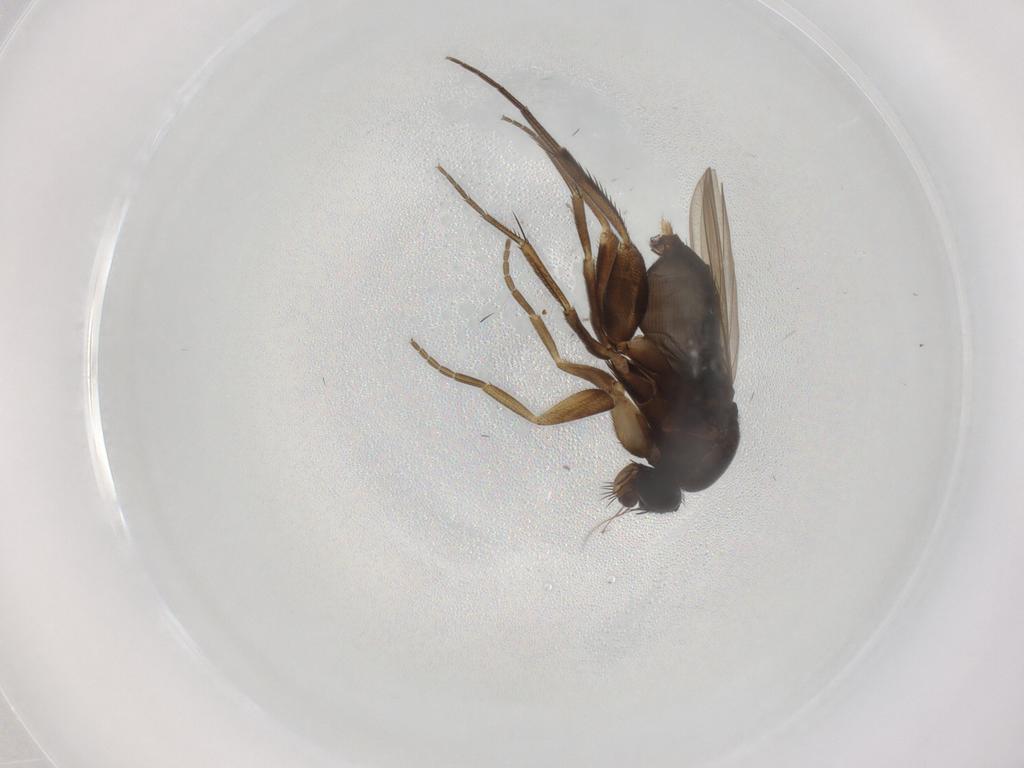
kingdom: Animalia
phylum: Arthropoda
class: Insecta
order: Diptera
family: Phoridae
